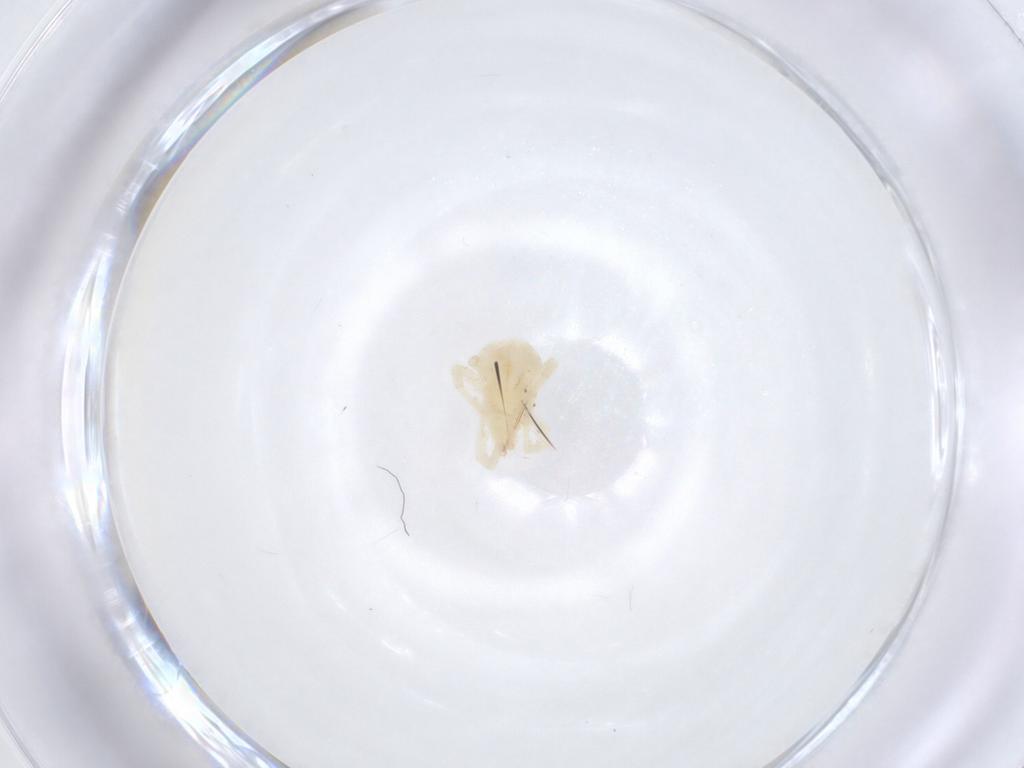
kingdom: Animalia
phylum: Arthropoda
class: Arachnida
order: Trombidiformes
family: Anystidae
